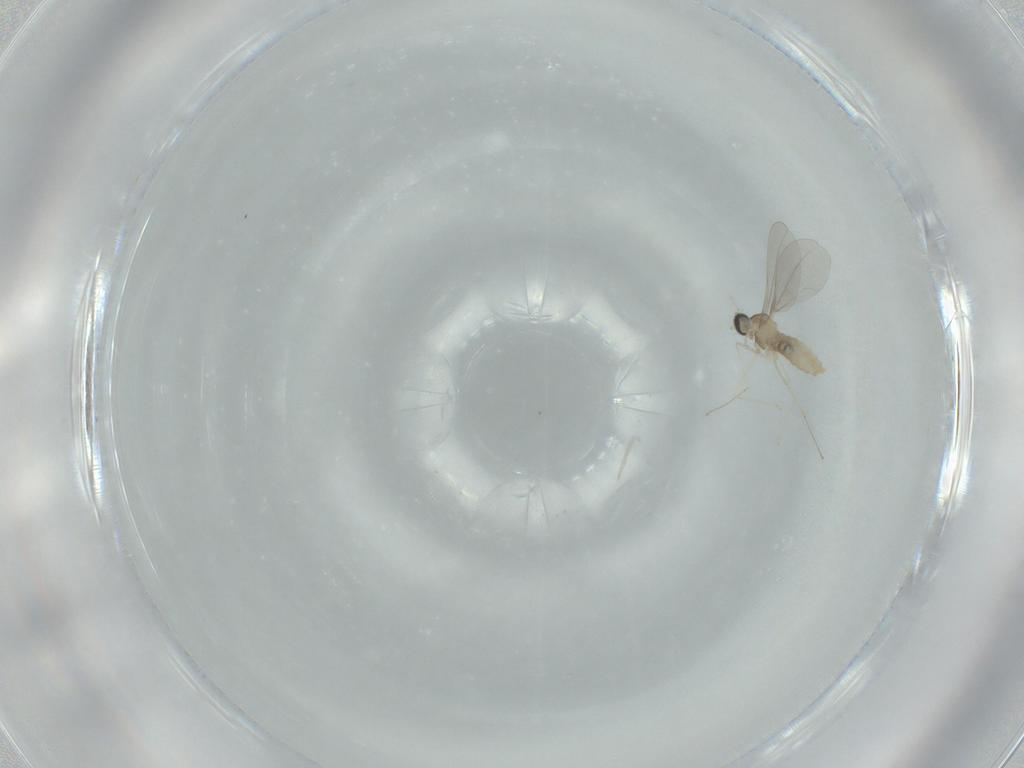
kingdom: Animalia
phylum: Arthropoda
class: Insecta
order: Diptera
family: Cecidomyiidae
